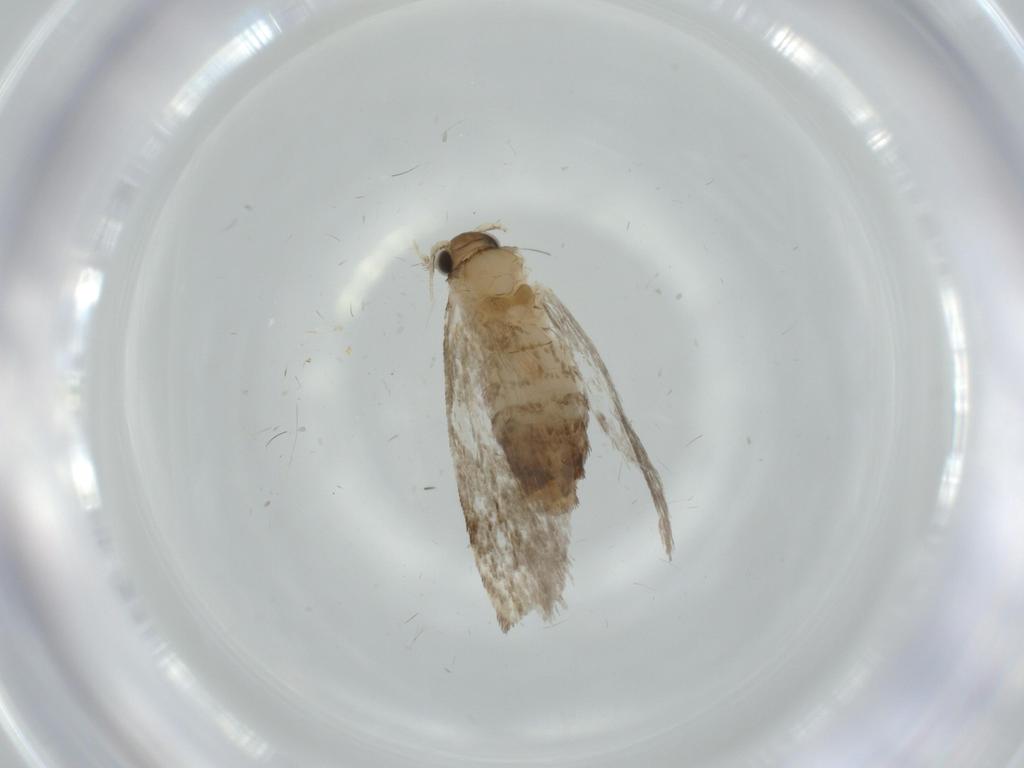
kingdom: Animalia
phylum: Arthropoda
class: Insecta
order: Lepidoptera
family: Tineidae
